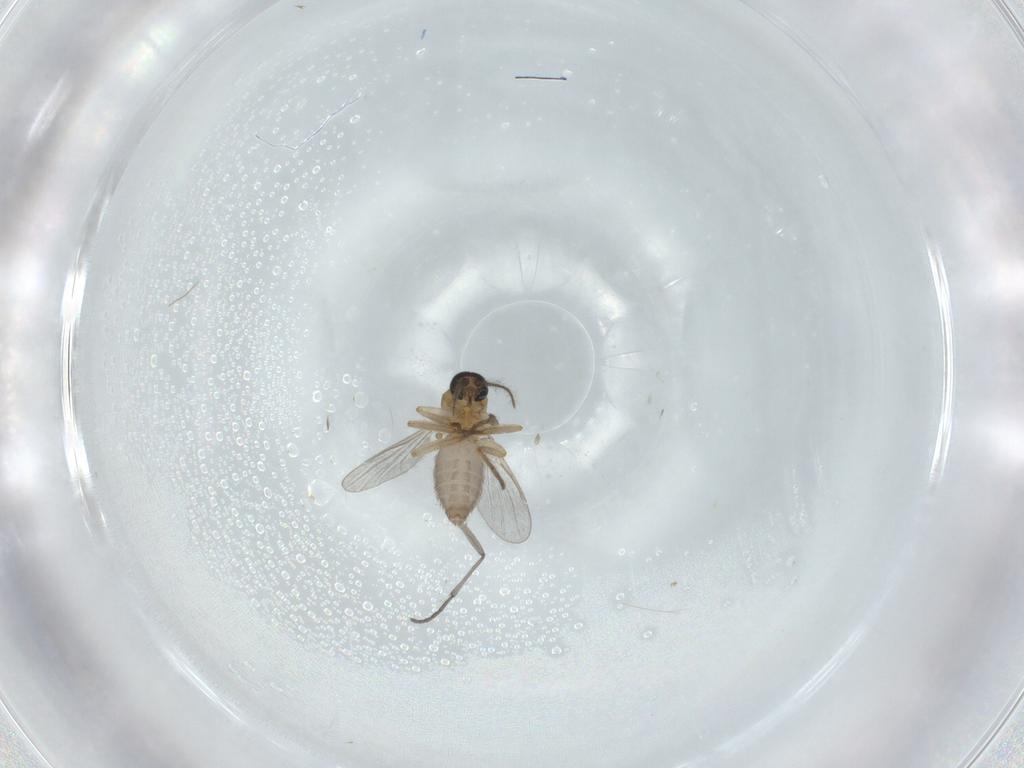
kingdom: Animalia
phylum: Arthropoda
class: Insecta
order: Diptera
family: Ceratopogonidae
